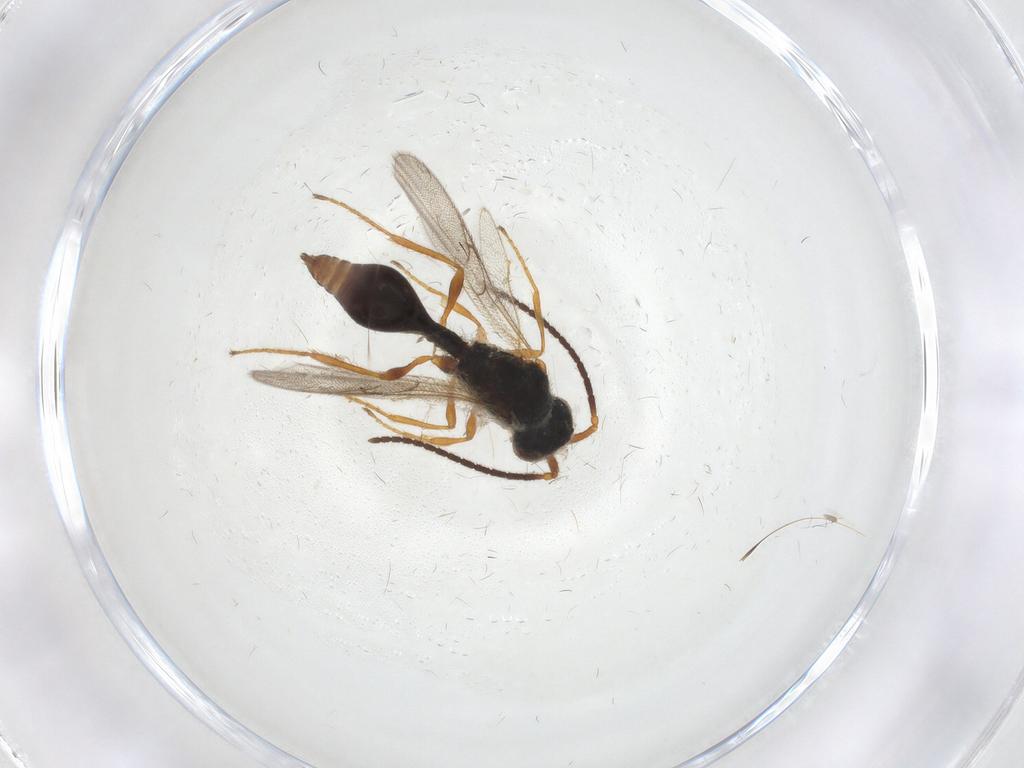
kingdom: Animalia
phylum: Arthropoda
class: Insecta
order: Hymenoptera
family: Diapriidae
